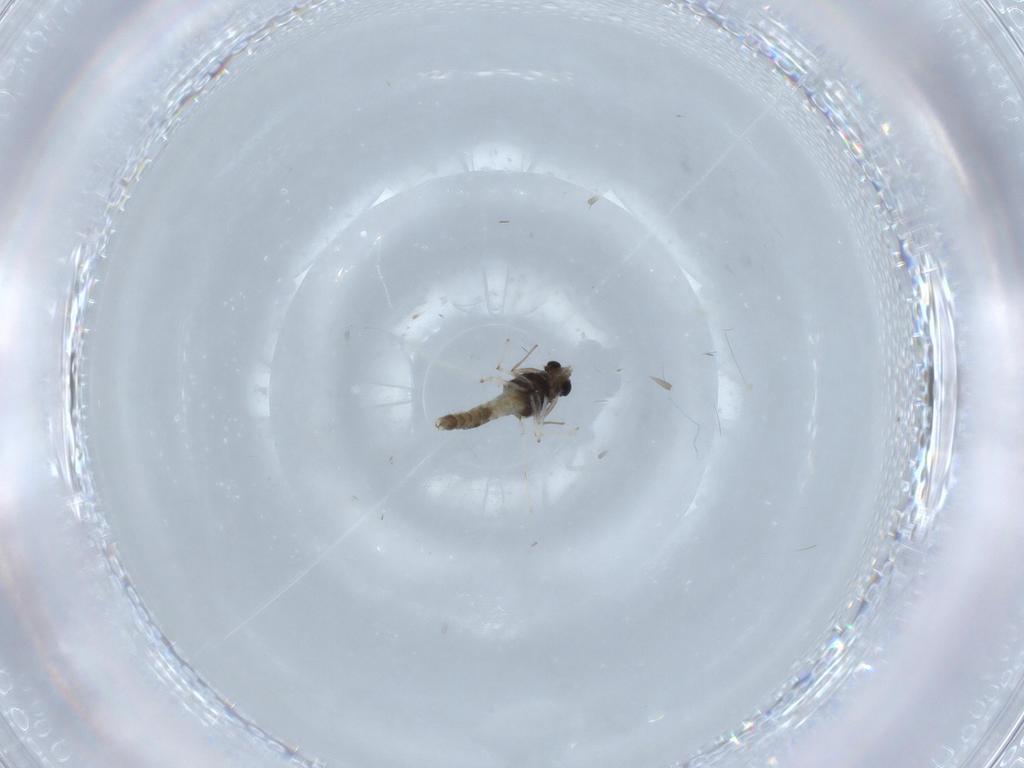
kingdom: Animalia
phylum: Arthropoda
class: Insecta
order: Diptera
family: Chironomidae
